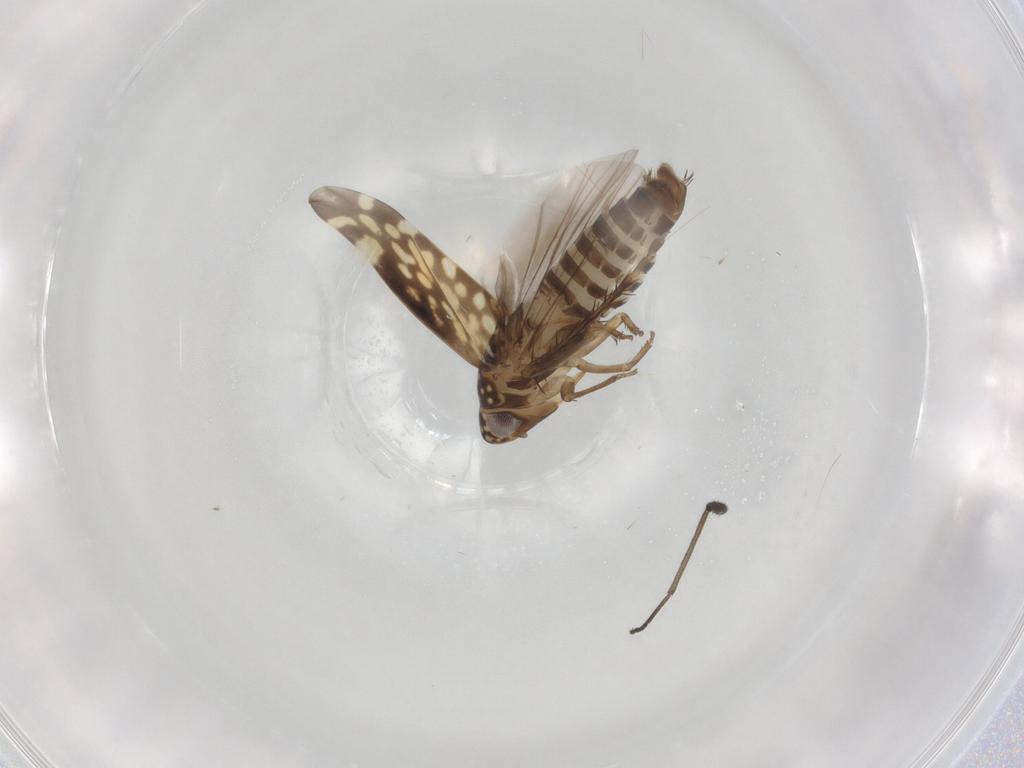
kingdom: Animalia
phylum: Arthropoda
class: Insecta
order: Hemiptera
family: Cicadellidae
